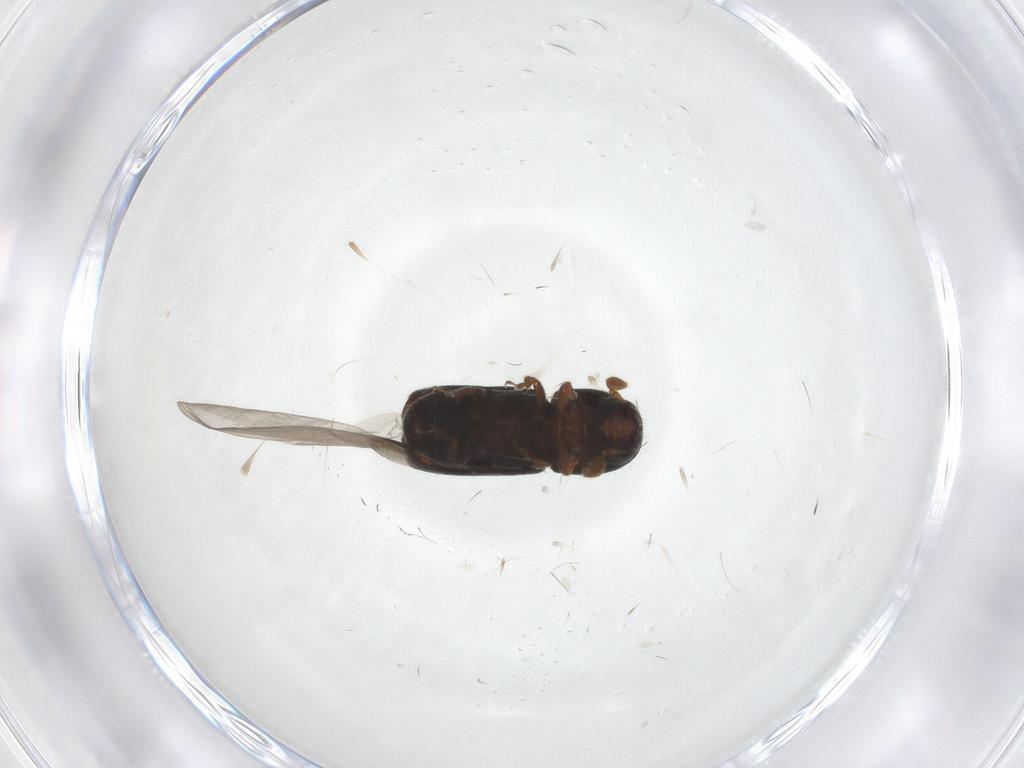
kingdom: Animalia
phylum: Arthropoda
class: Insecta
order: Coleoptera
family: Curculionidae
